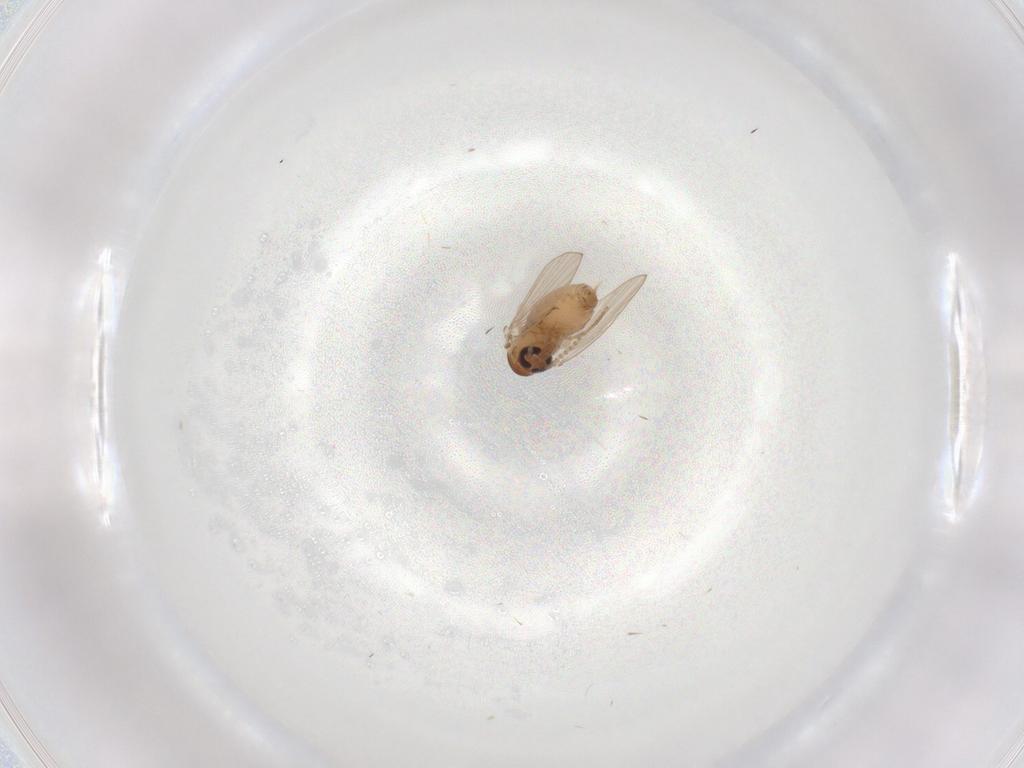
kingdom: Animalia
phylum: Arthropoda
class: Insecta
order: Diptera
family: Psychodidae
